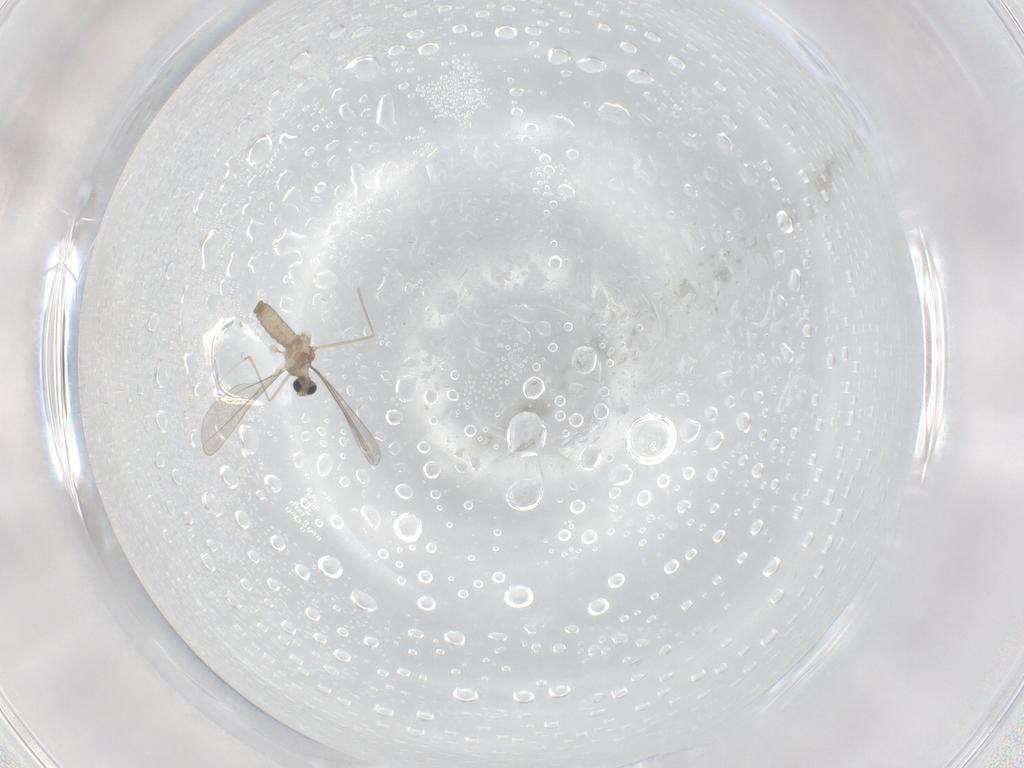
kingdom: Animalia
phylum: Arthropoda
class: Insecta
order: Diptera
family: Cecidomyiidae
